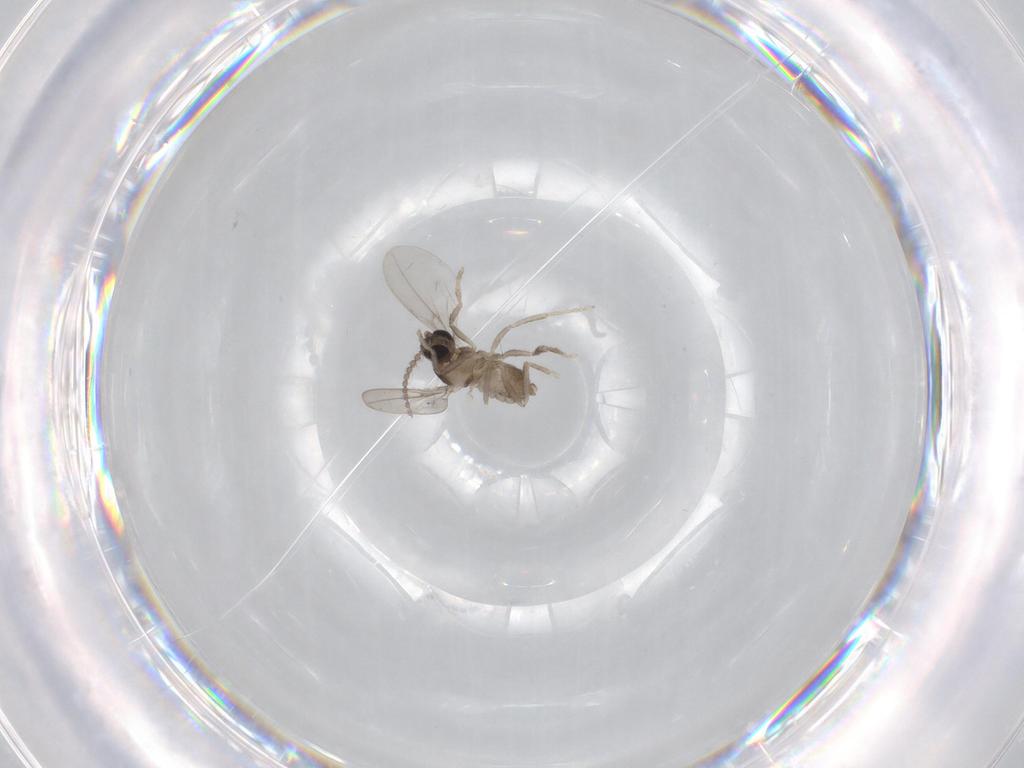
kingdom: Animalia
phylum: Arthropoda
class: Insecta
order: Diptera
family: Cecidomyiidae
